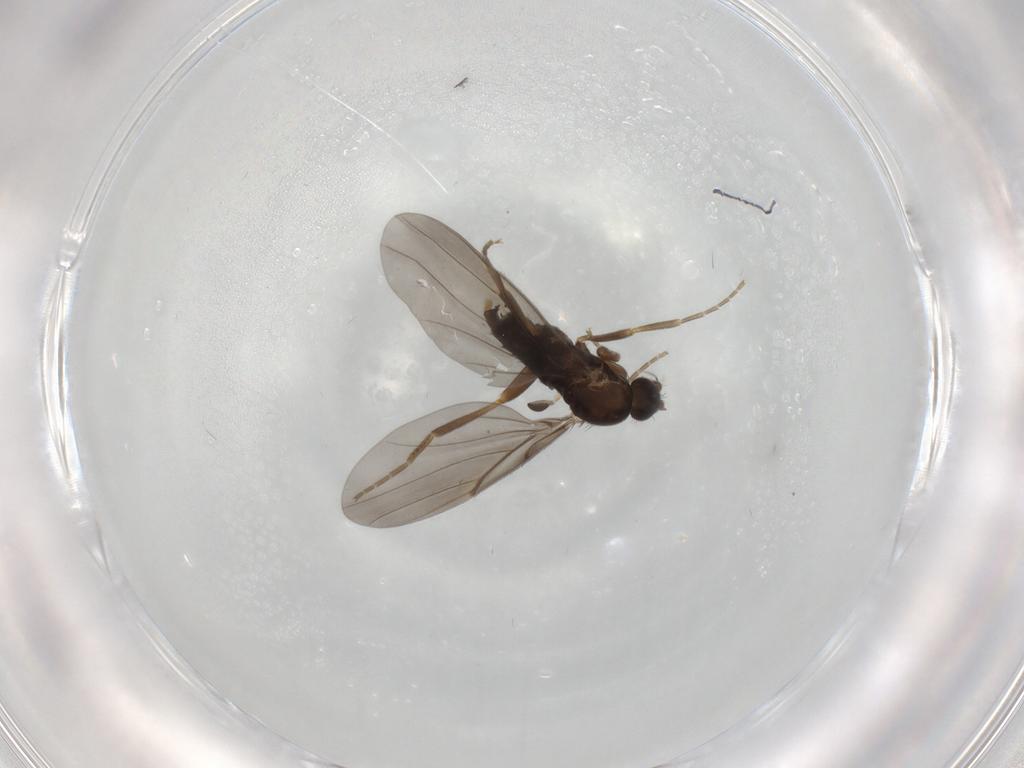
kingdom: Animalia
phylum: Arthropoda
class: Insecta
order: Diptera
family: Phoridae
